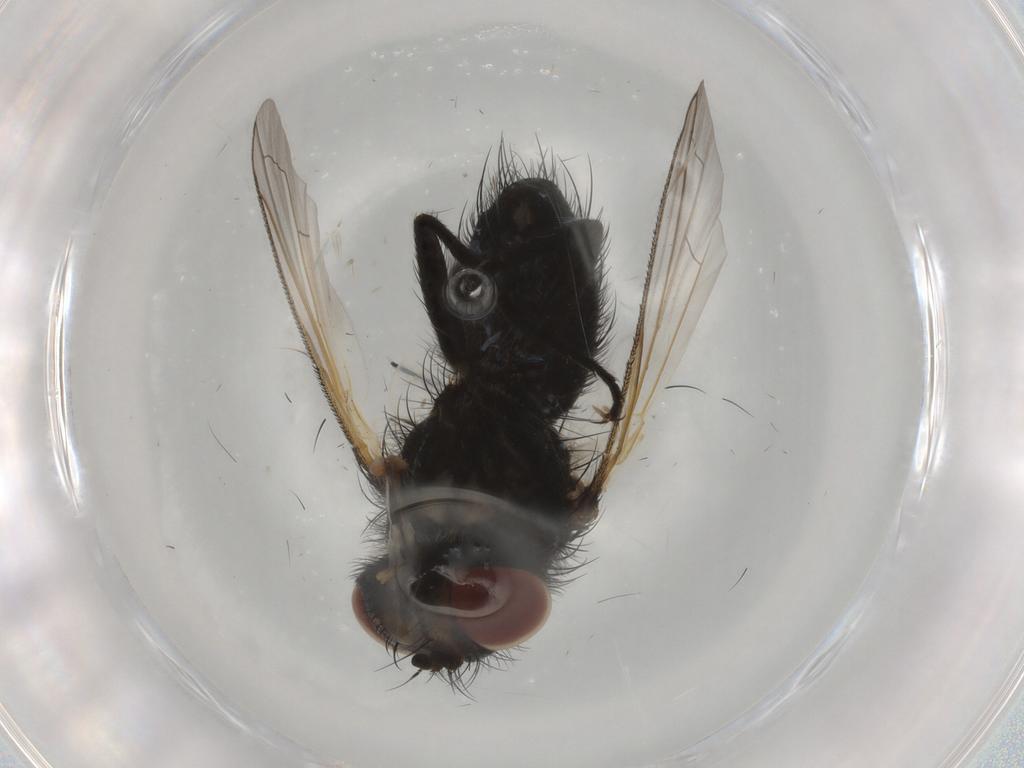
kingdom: Animalia
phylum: Arthropoda
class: Insecta
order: Diptera
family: Tachinidae
